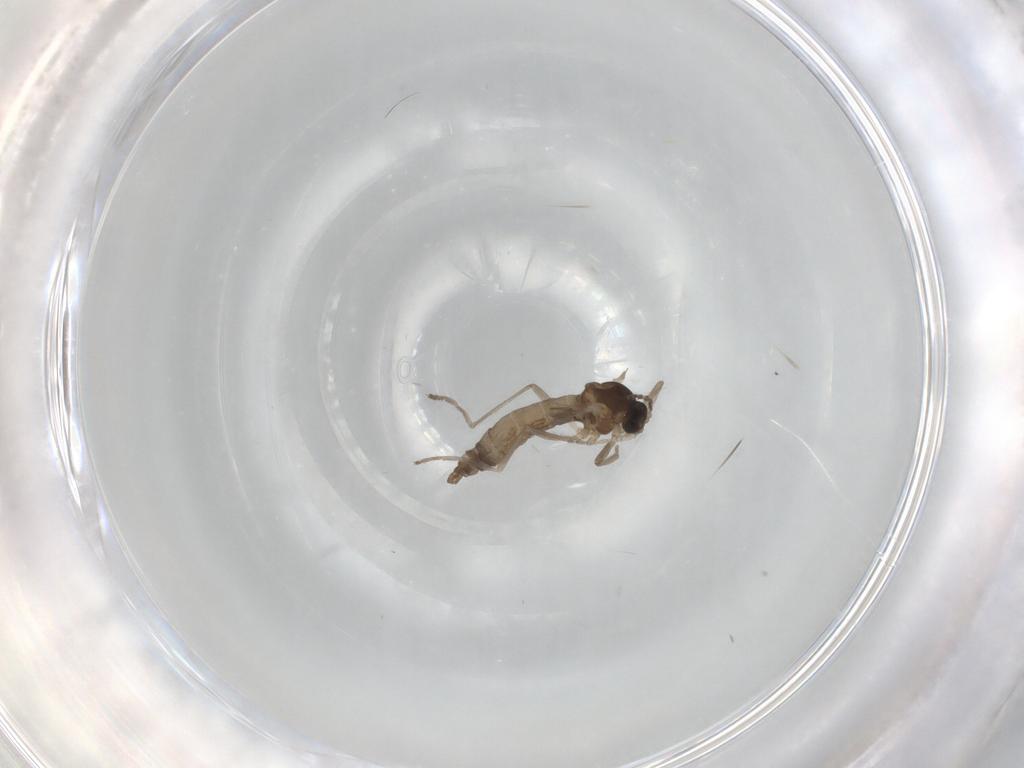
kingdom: Animalia
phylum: Arthropoda
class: Insecta
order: Diptera
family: Cecidomyiidae
